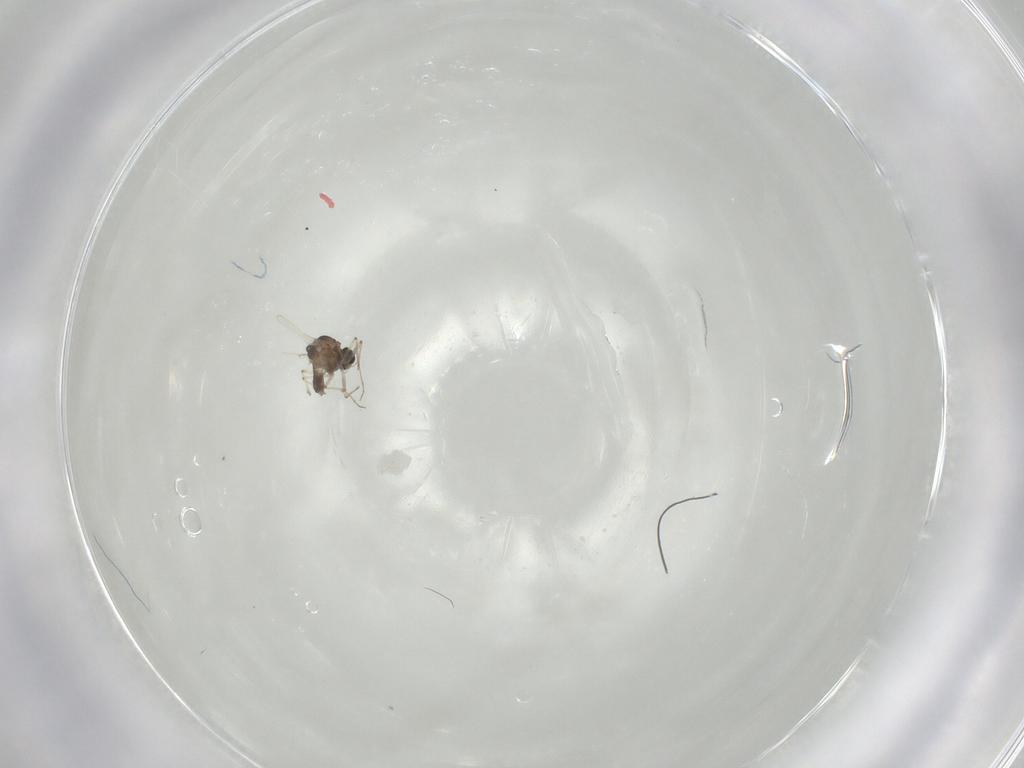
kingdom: Animalia
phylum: Arthropoda
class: Insecta
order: Diptera
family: Chironomidae
